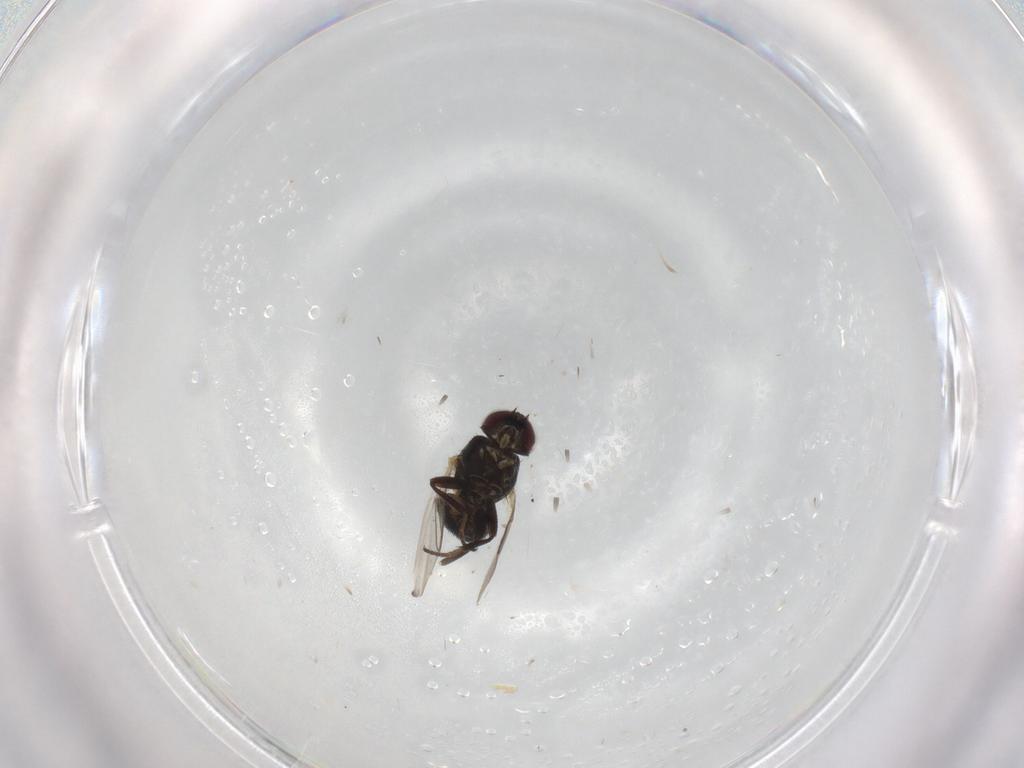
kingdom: Animalia
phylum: Arthropoda
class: Insecta
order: Diptera
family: Agromyzidae
